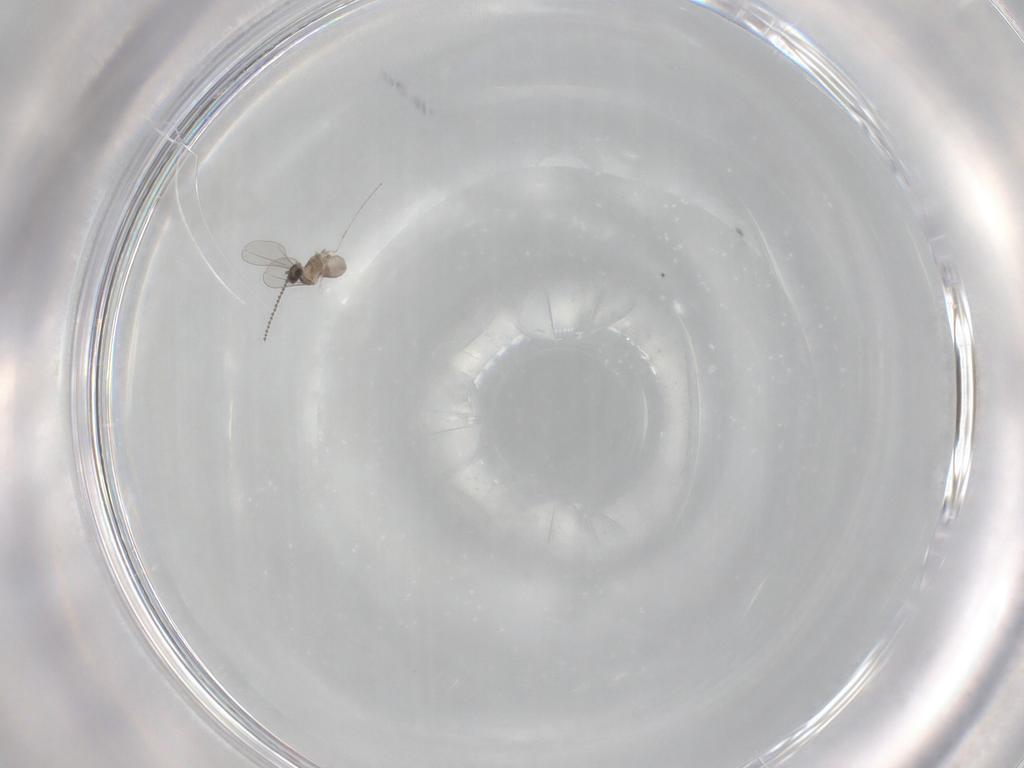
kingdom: Animalia
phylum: Arthropoda
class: Insecta
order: Diptera
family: Cecidomyiidae
